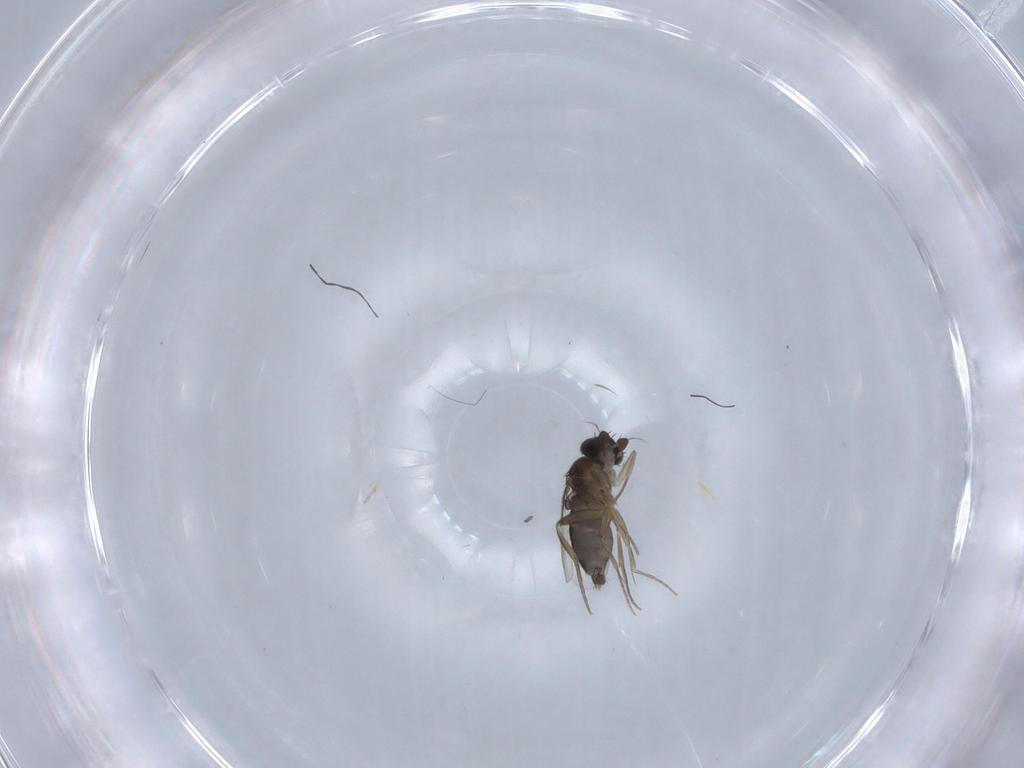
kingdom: Animalia
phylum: Arthropoda
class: Insecta
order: Diptera
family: Phoridae
